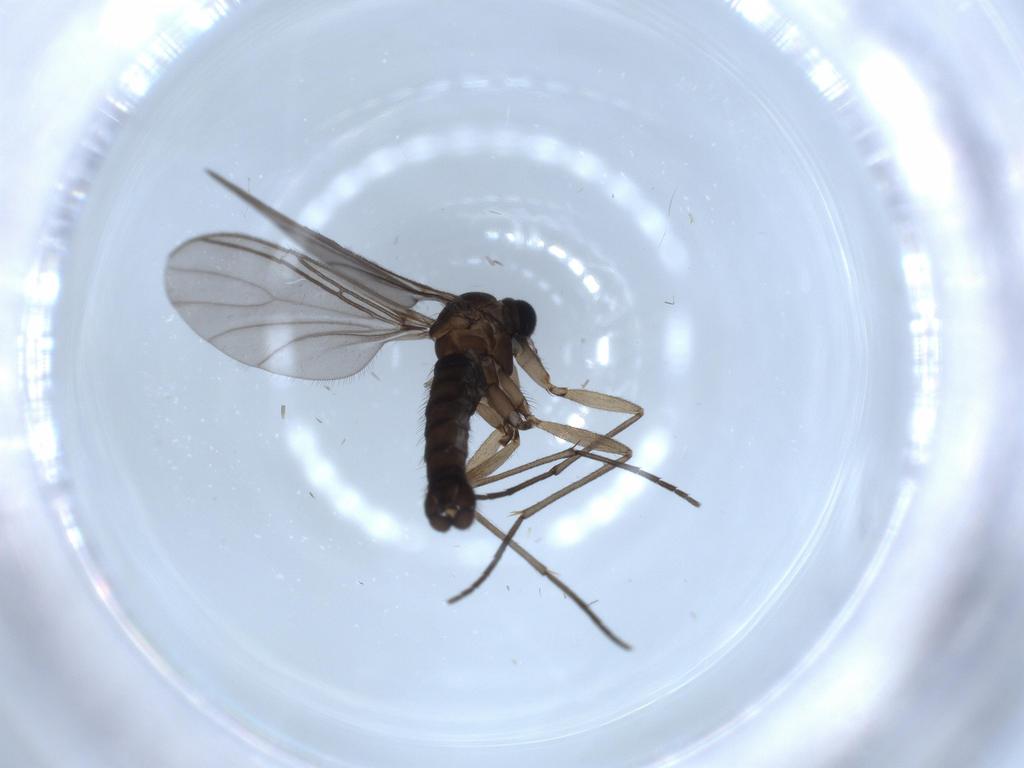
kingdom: Animalia
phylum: Arthropoda
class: Insecta
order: Diptera
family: Sciaridae
